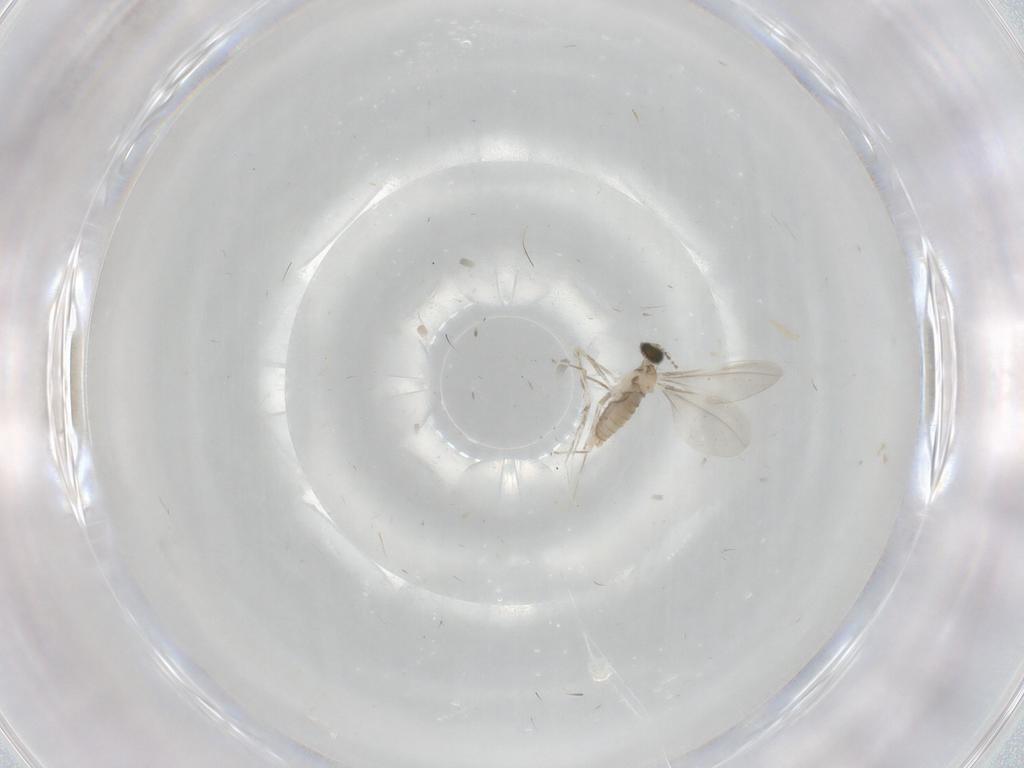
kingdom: Animalia
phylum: Arthropoda
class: Insecta
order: Diptera
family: Cecidomyiidae
